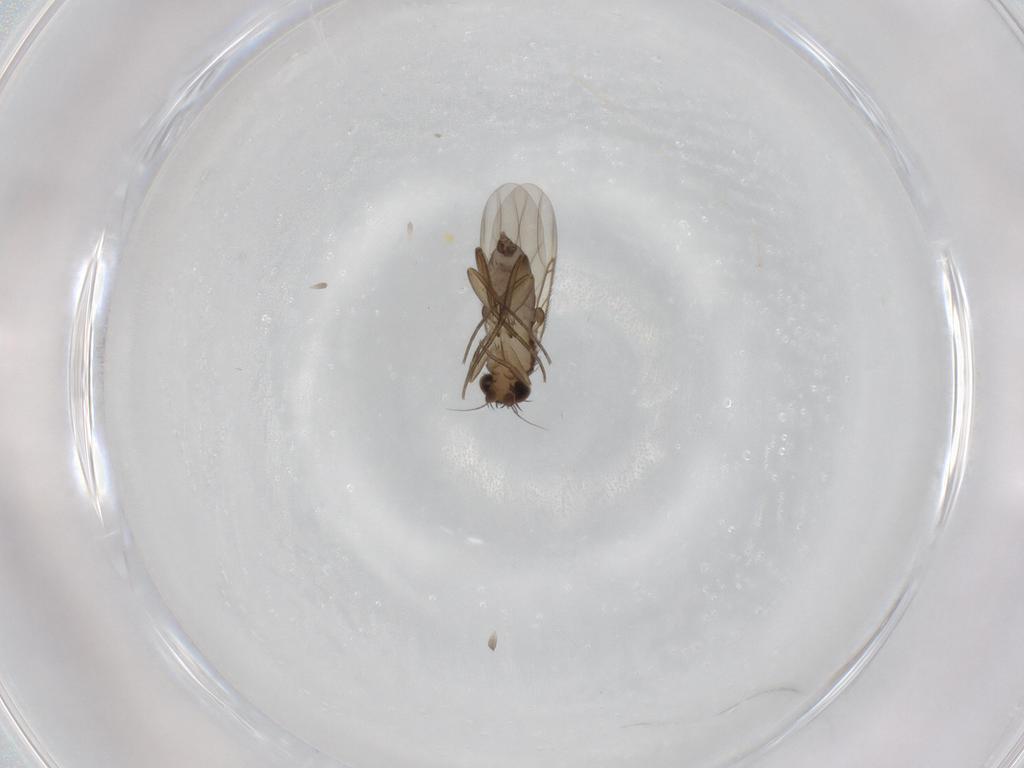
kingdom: Animalia
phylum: Arthropoda
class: Insecta
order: Diptera
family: Cecidomyiidae
